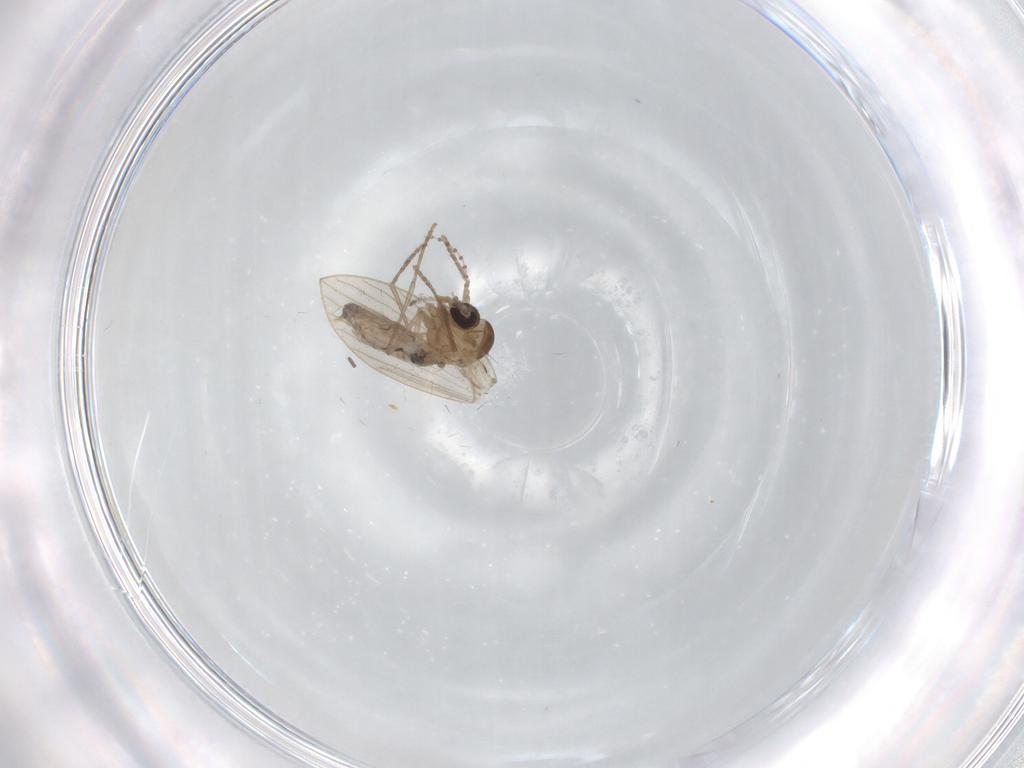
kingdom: Animalia
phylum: Arthropoda
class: Insecta
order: Diptera
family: Psychodidae
